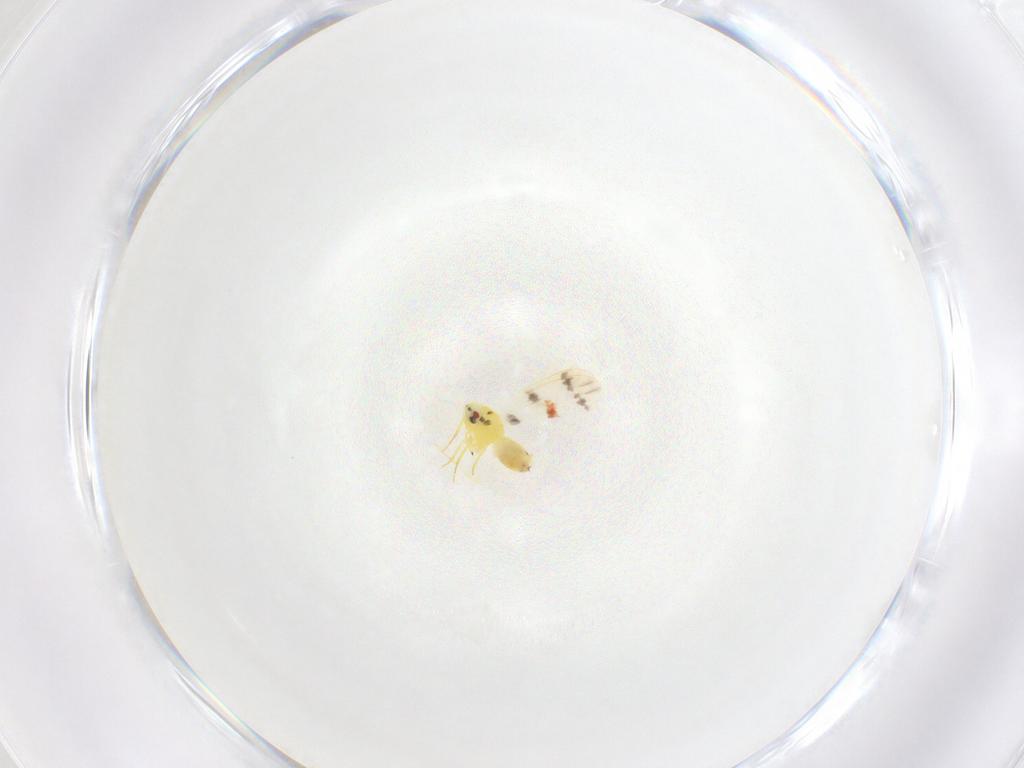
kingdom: Animalia
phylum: Arthropoda
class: Insecta
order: Diptera
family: Sciaridae
